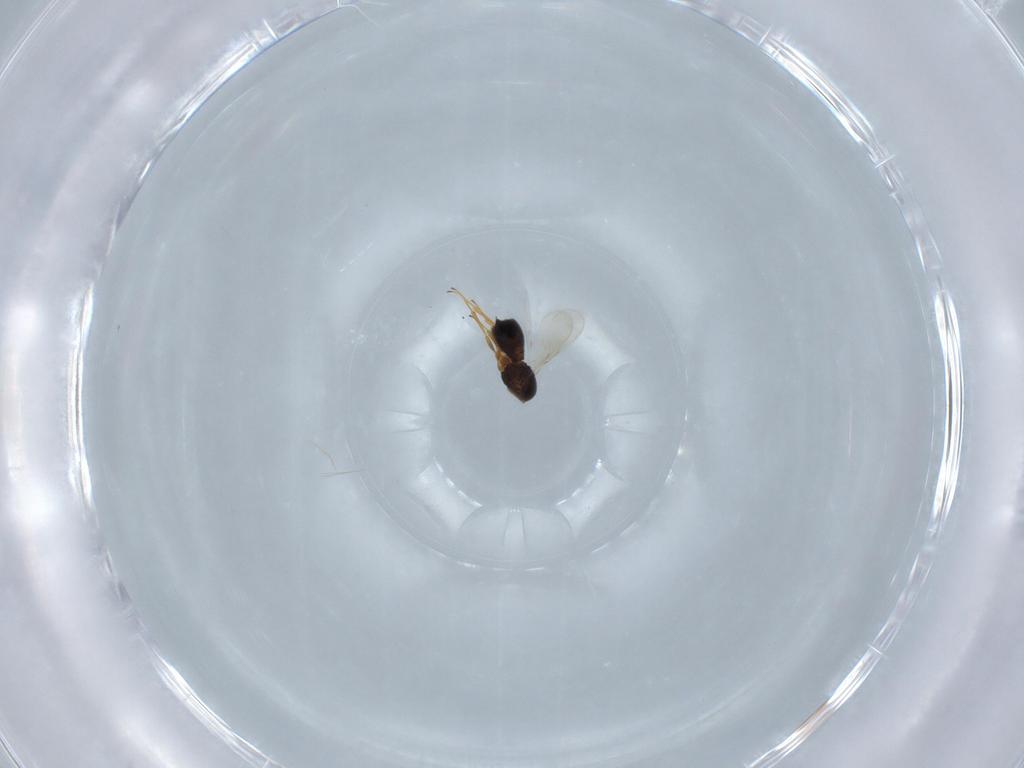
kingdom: Animalia
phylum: Arthropoda
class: Insecta
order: Hymenoptera
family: Scelionidae
